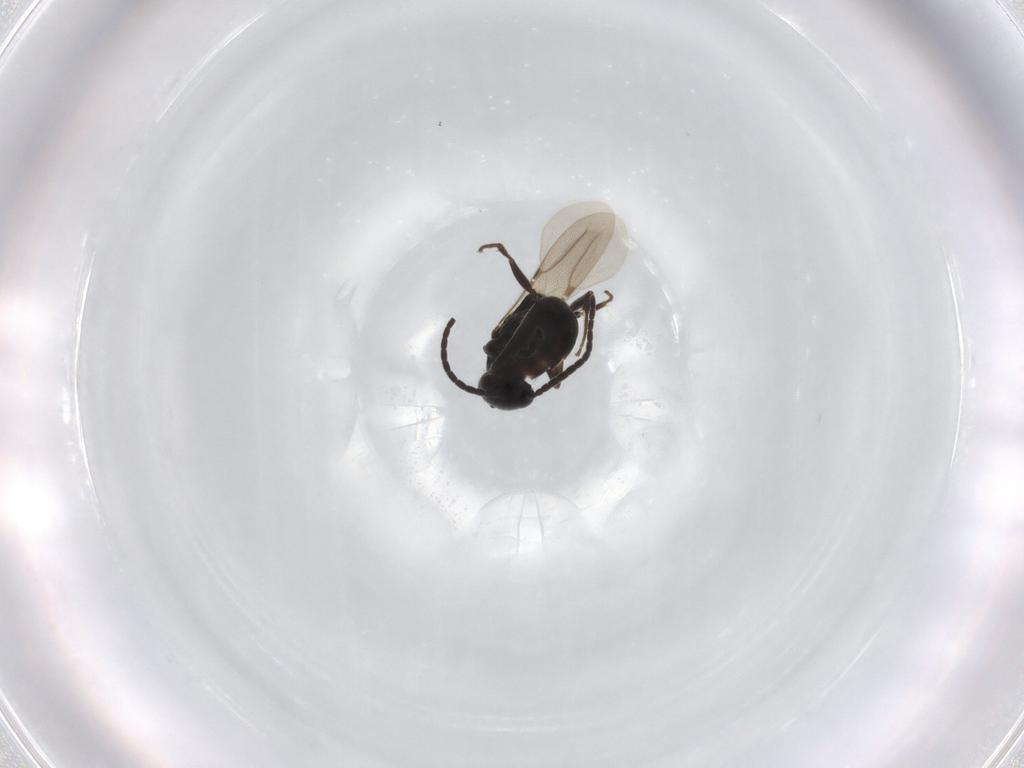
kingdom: Animalia
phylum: Arthropoda
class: Insecta
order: Hymenoptera
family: Bethylidae
